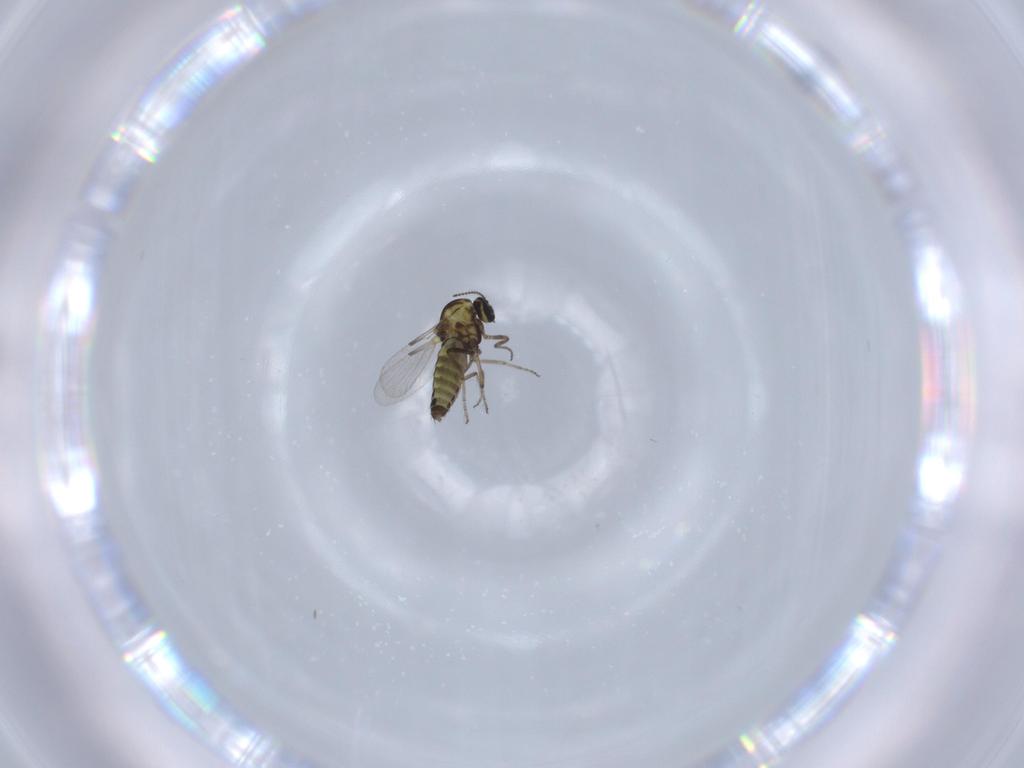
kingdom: Animalia
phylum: Arthropoda
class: Insecta
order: Diptera
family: Ceratopogonidae
